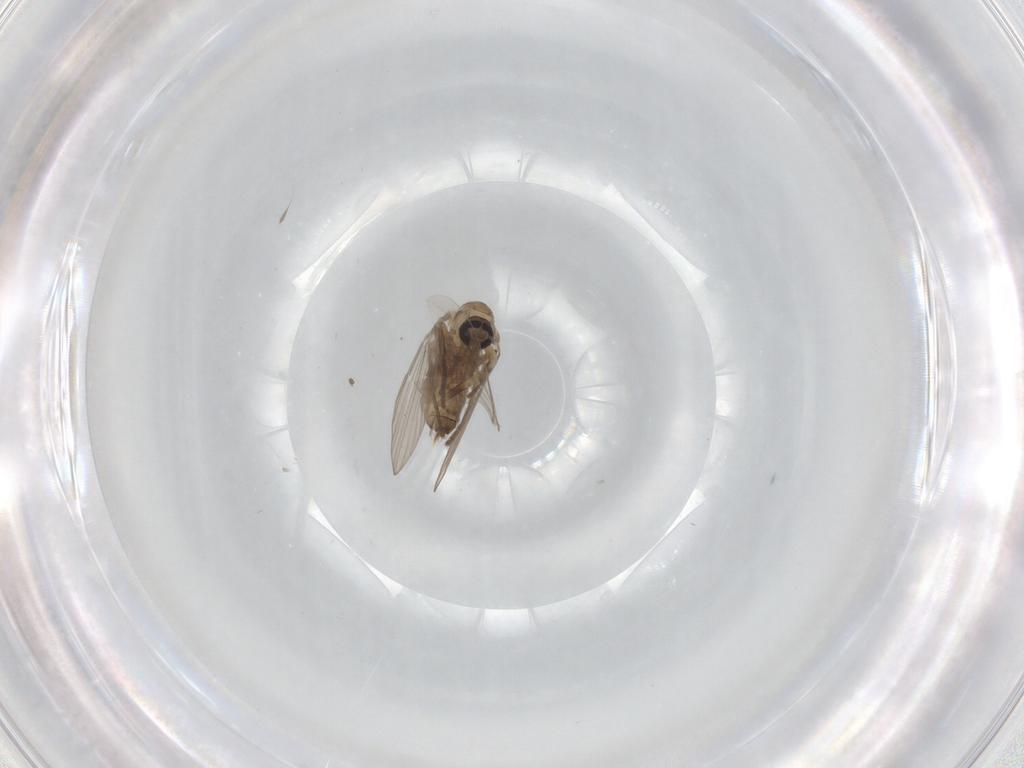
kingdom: Animalia
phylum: Arthropoda
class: Insecta
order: Diptera
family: Psychodidae
